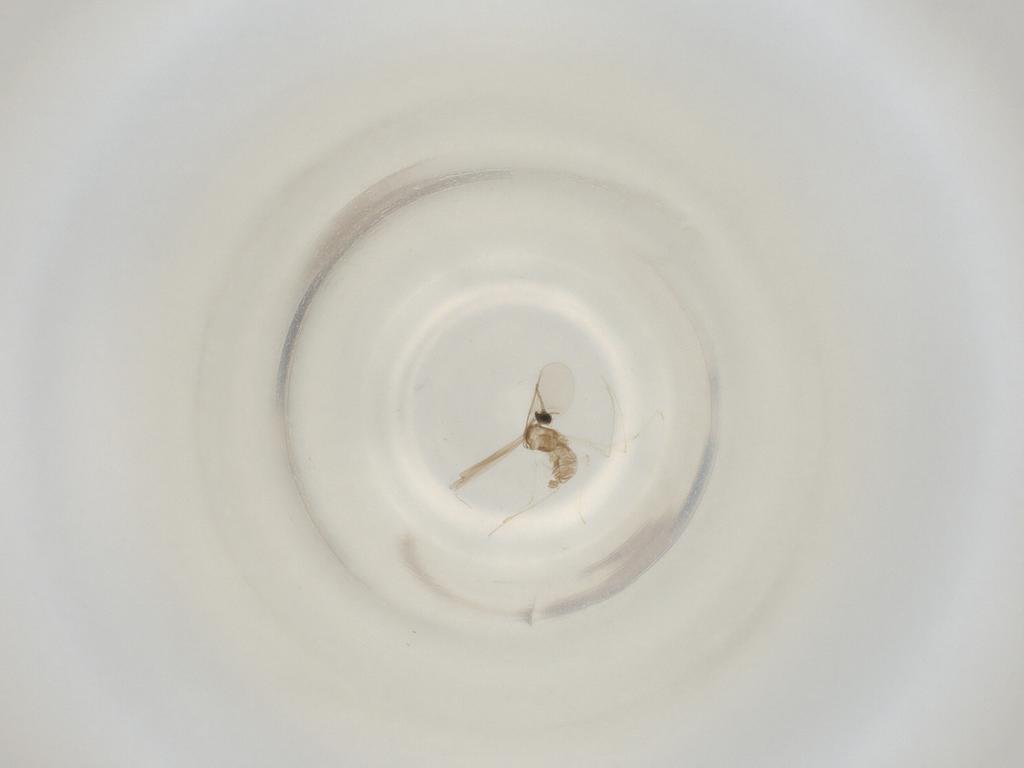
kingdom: Animalia
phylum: Arthropoda
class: Insecta
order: Diptera
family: Cecidomyiidae
